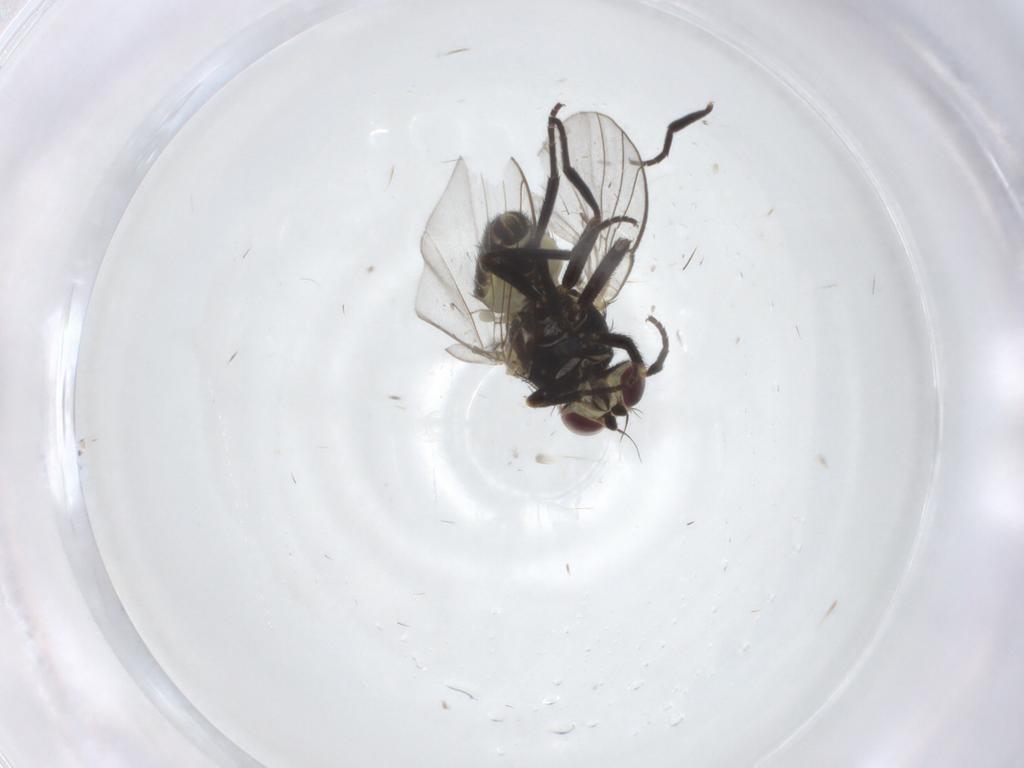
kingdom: Animalia
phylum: Arthropoda
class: Insecta
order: Diptera
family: Agromyzidae
